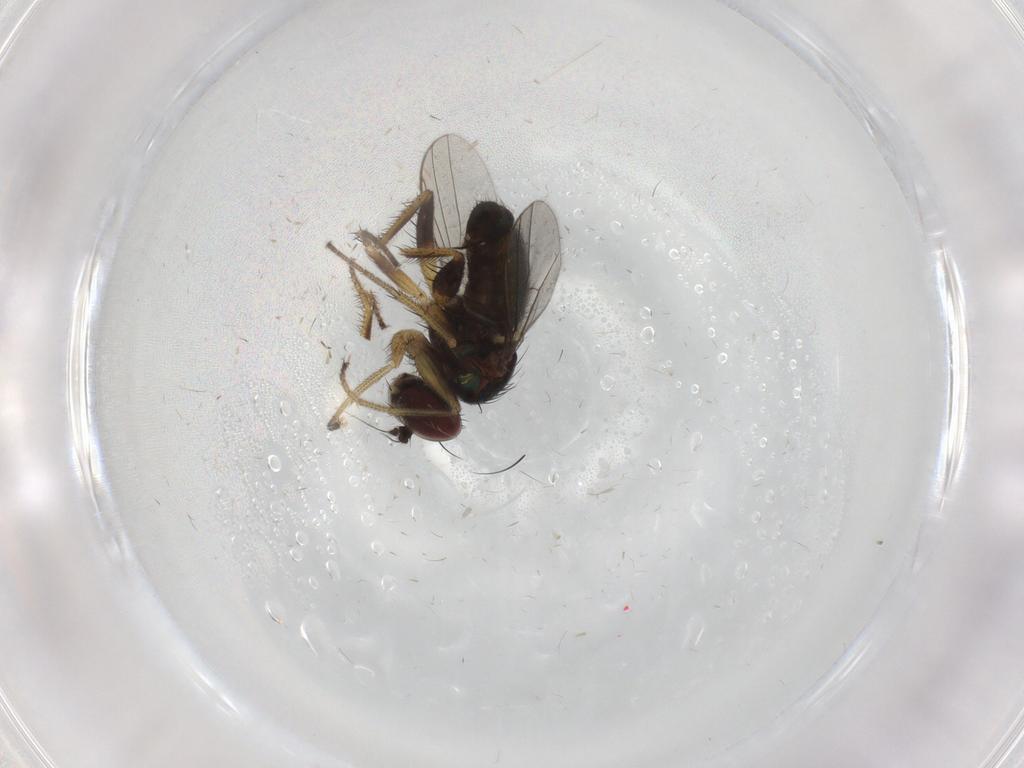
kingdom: Animalia
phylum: Arthropoda
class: Insecta
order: Diptera
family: Dolichopodidae
